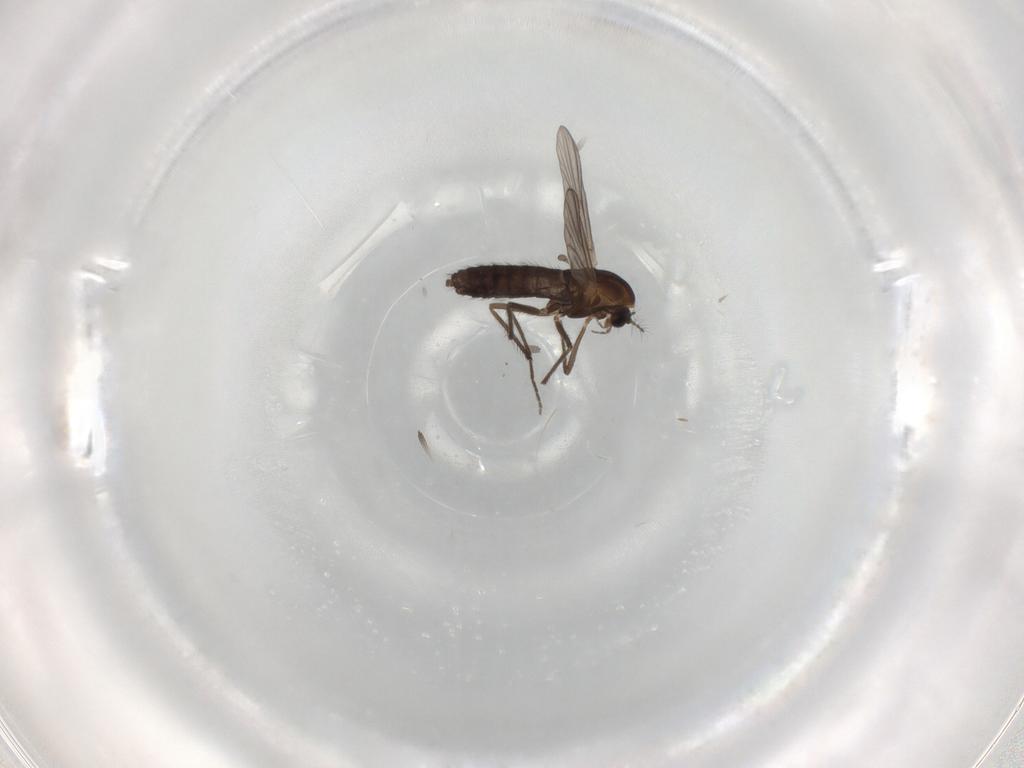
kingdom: Animalia
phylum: Arthropoda
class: Insecta
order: Diptera
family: Chironomidae
